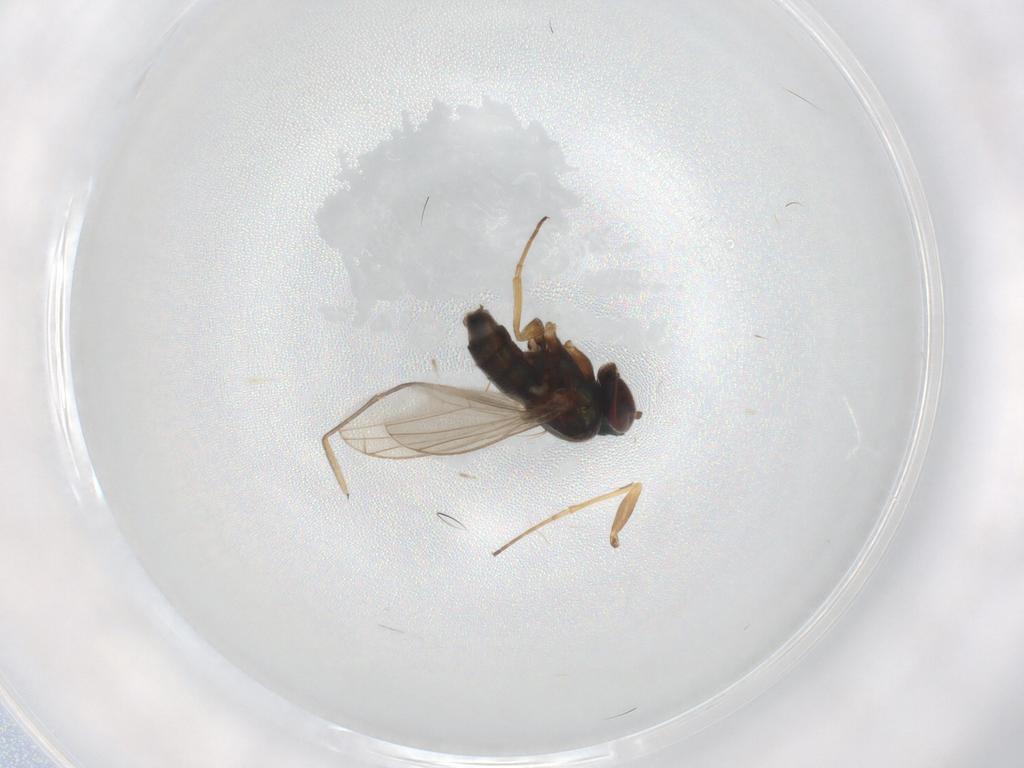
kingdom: Animalia
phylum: Arthropoda
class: Insecta
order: Diptera
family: Dolichopodidae
